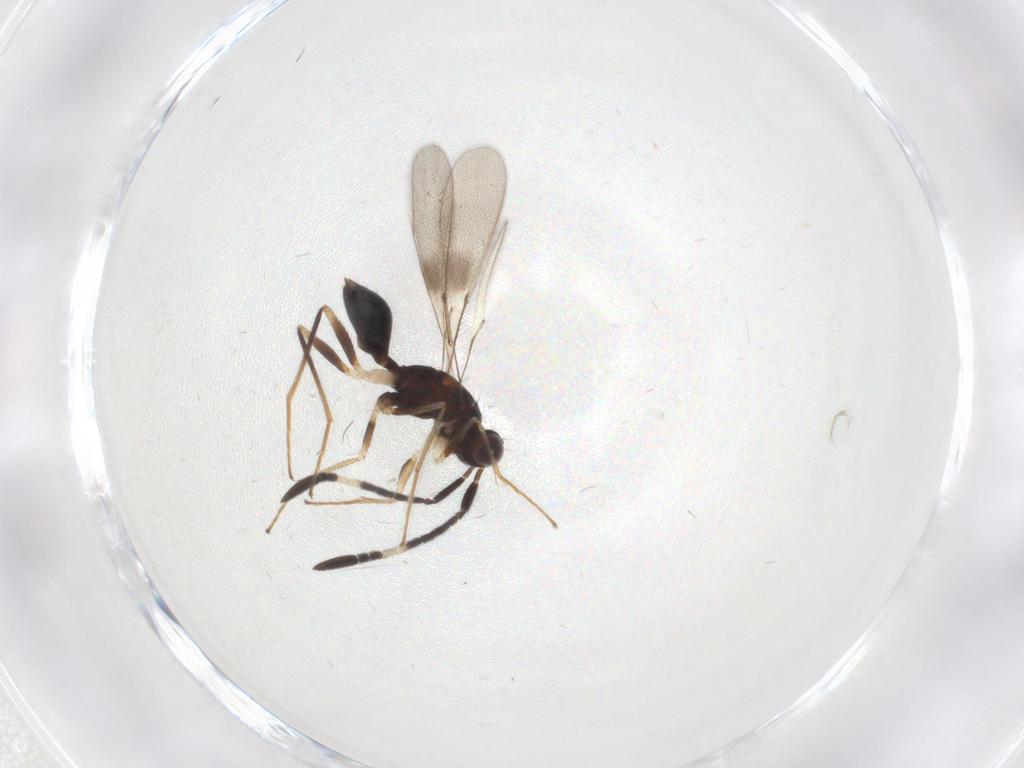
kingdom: Animalia
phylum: Arthropoda
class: Insecta
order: Hymenoptera
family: Mymaridae
